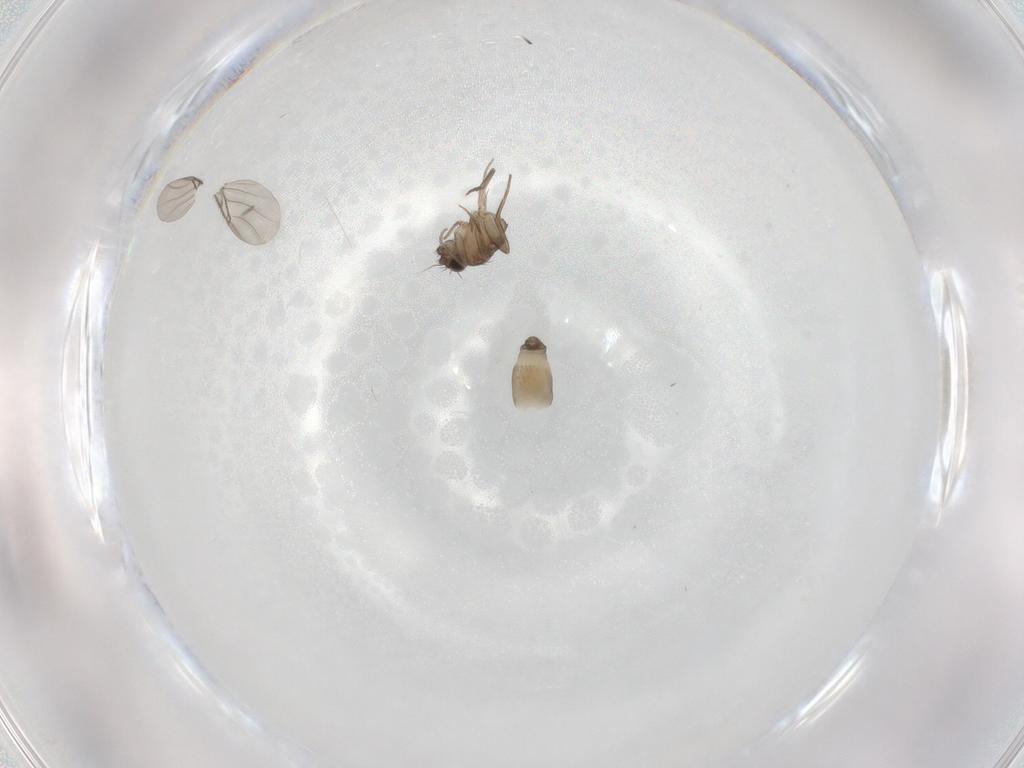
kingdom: Animalia
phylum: Arthropoda
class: Insecta
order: Diptera
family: Phoridae
